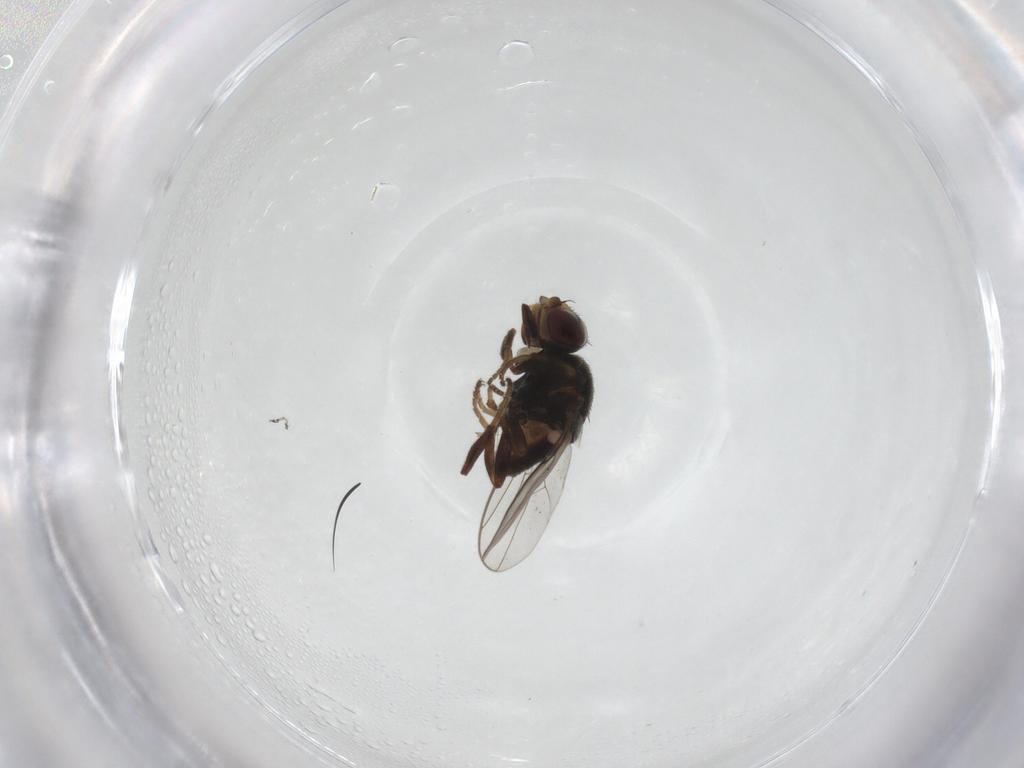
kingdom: Animalia
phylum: Arthropoda
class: Insecta
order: Diptera
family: Chloropidae
